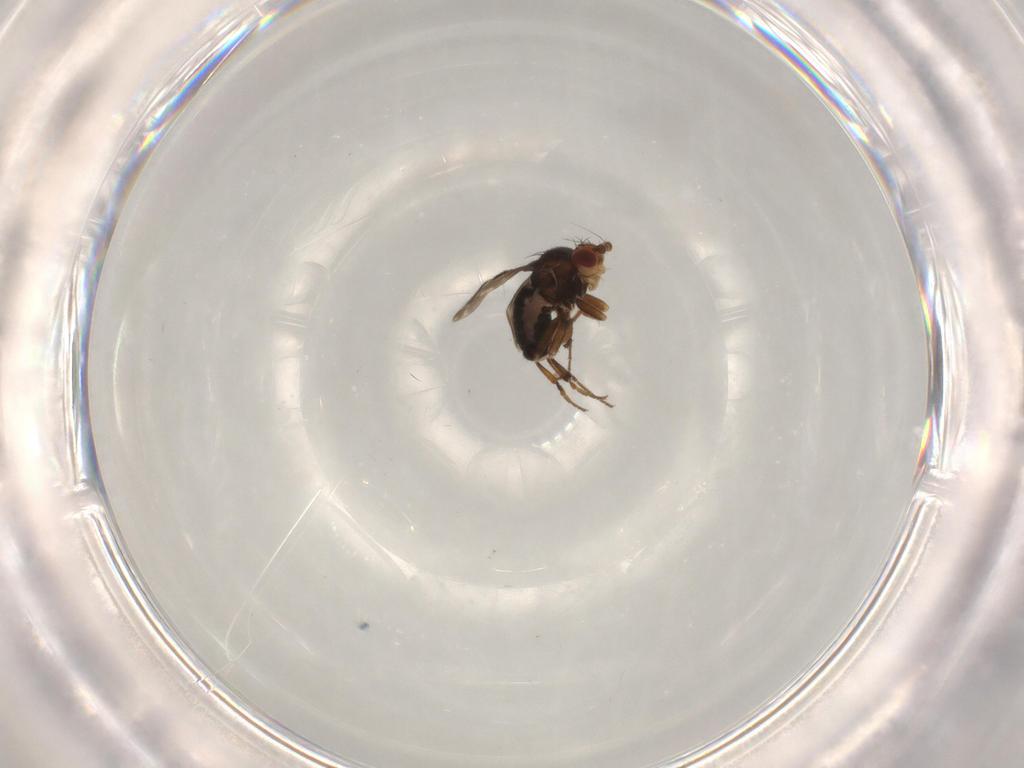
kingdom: Animalia
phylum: Arthropoda
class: Insecta
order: Diptera
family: Sphaeroceridae
